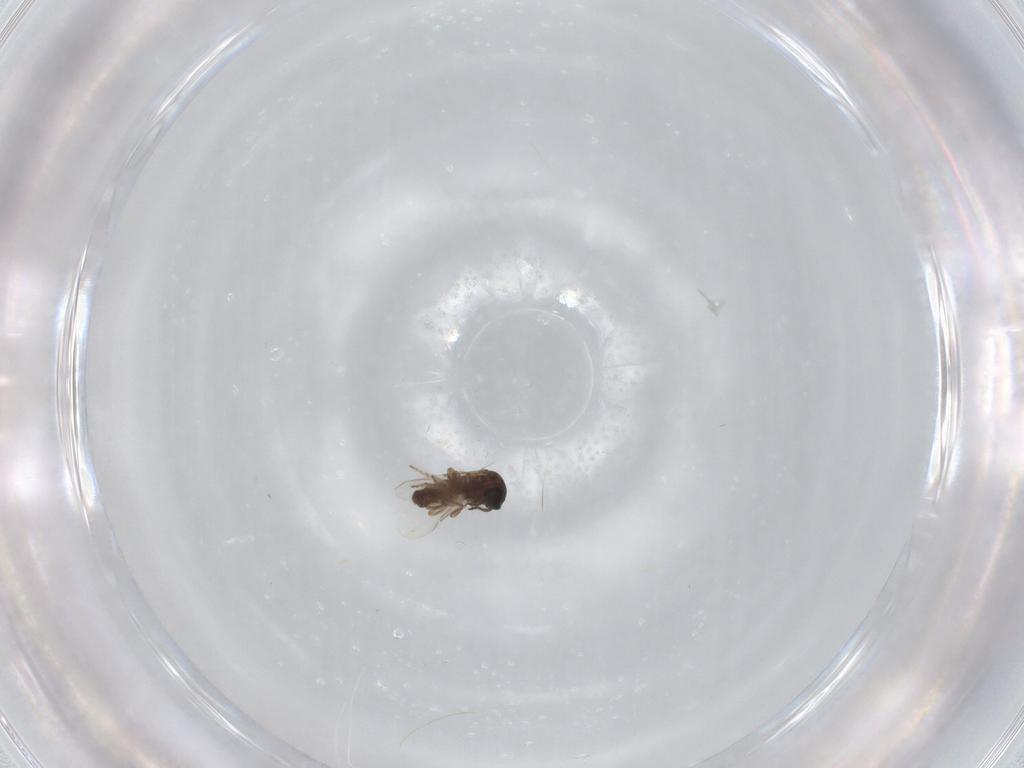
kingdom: Animalia
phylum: Arthropoda
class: Insecta
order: Diptera
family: Ceratopogonidae
